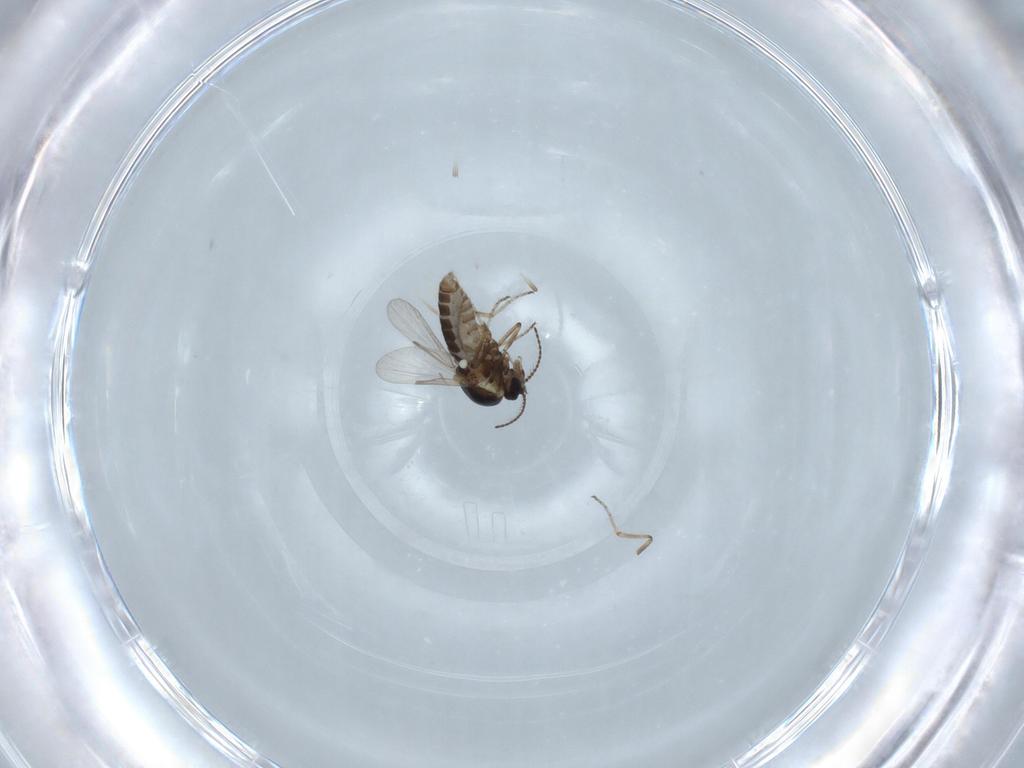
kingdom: Animalia
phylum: Arthropoda
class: Insecta
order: Diptera
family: Ceratopogonidae
